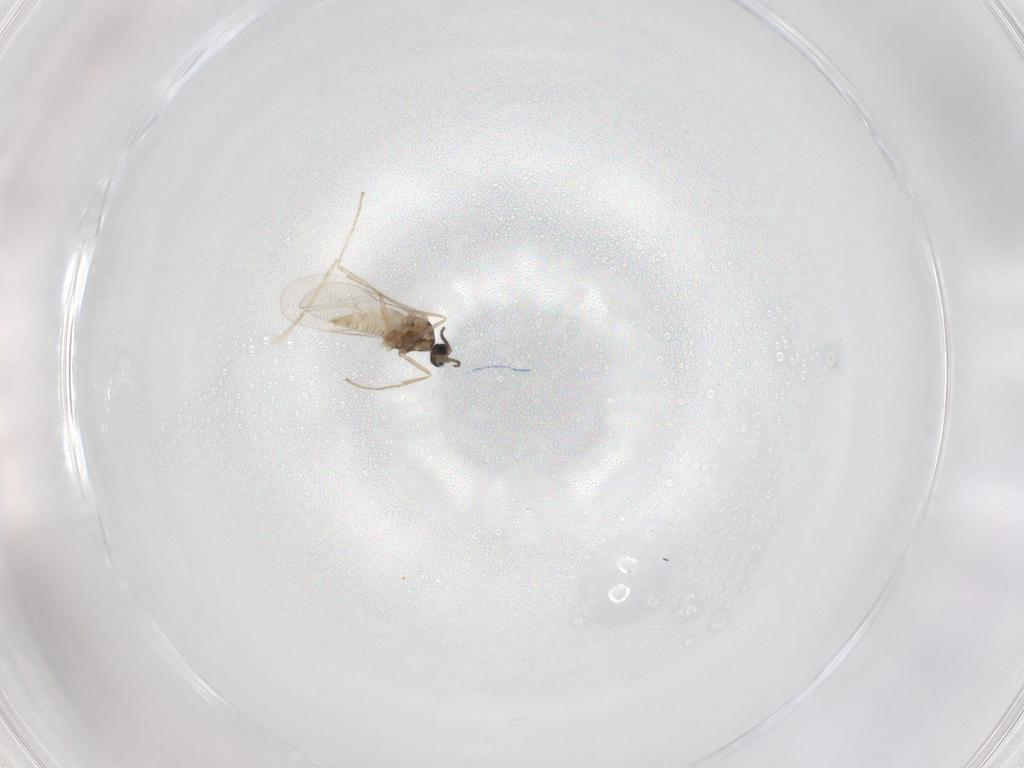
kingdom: Animalia
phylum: Arthropoda
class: Insecta
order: Diptera
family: Cecidomyiidae
